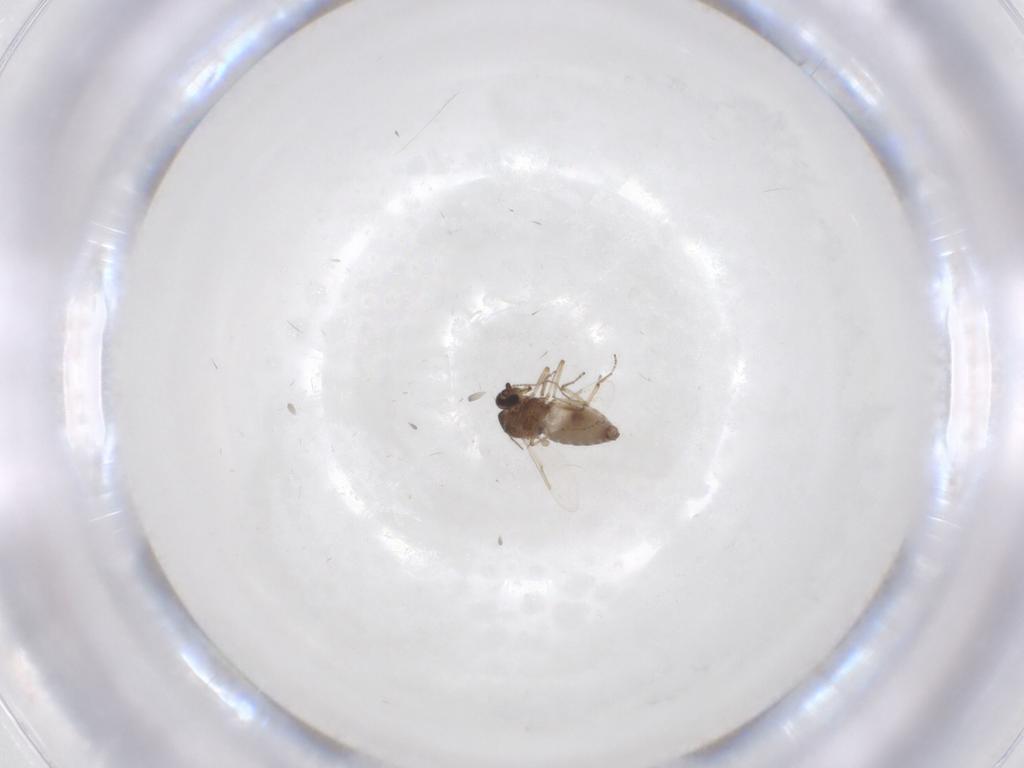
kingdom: Animalia
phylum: Arthropoda
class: Insecta
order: Diptera
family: Ceratopogonidae
